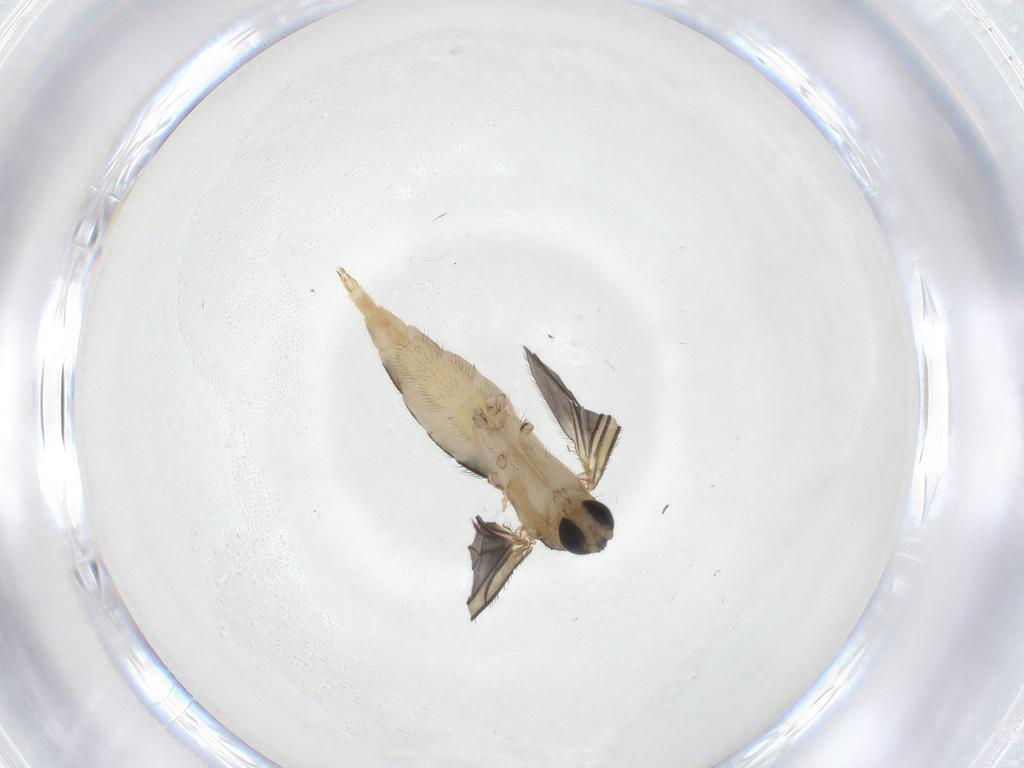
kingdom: Animalia
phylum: Arthropoda
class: Insecta
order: Diptera
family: Sciaridae
